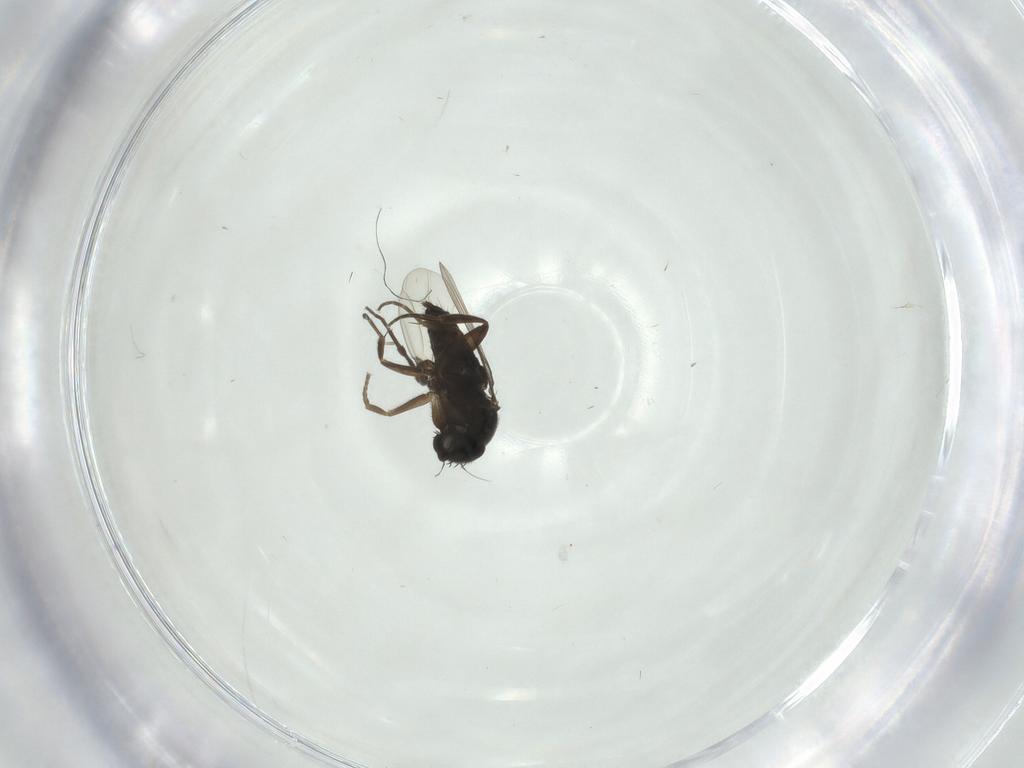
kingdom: Animalia
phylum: Arthropoda
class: Insecta
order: Diptera
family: Phoridae
